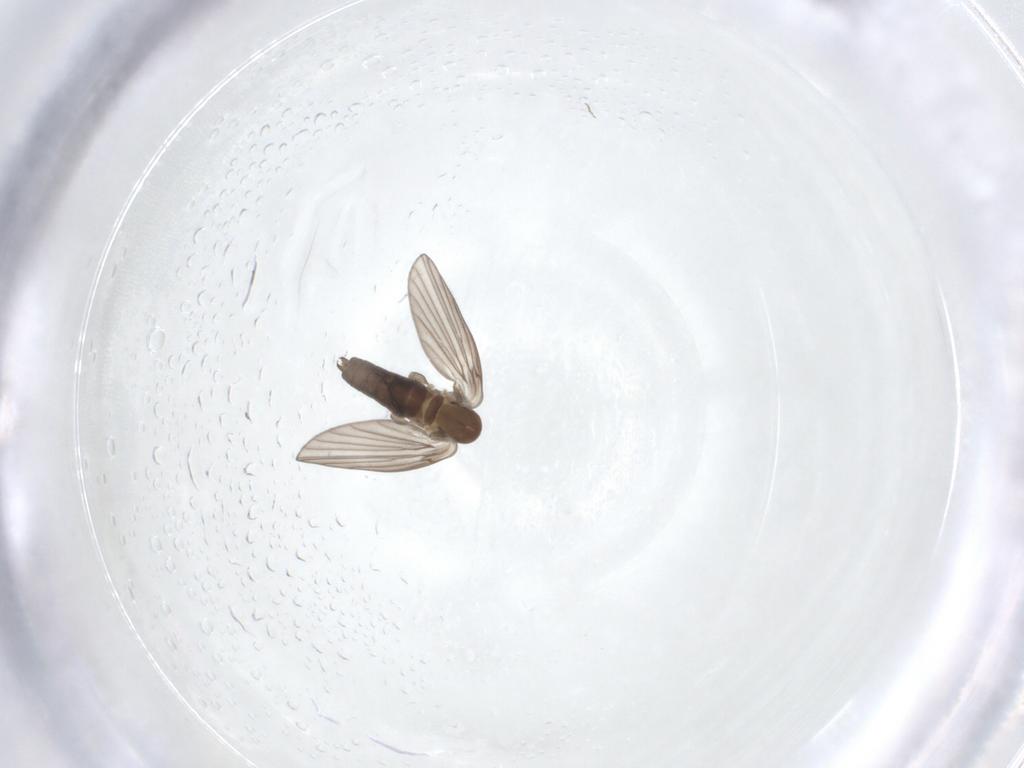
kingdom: Animalia
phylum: Arthropoda
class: Insecta
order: Diptera
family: Psychodidae
